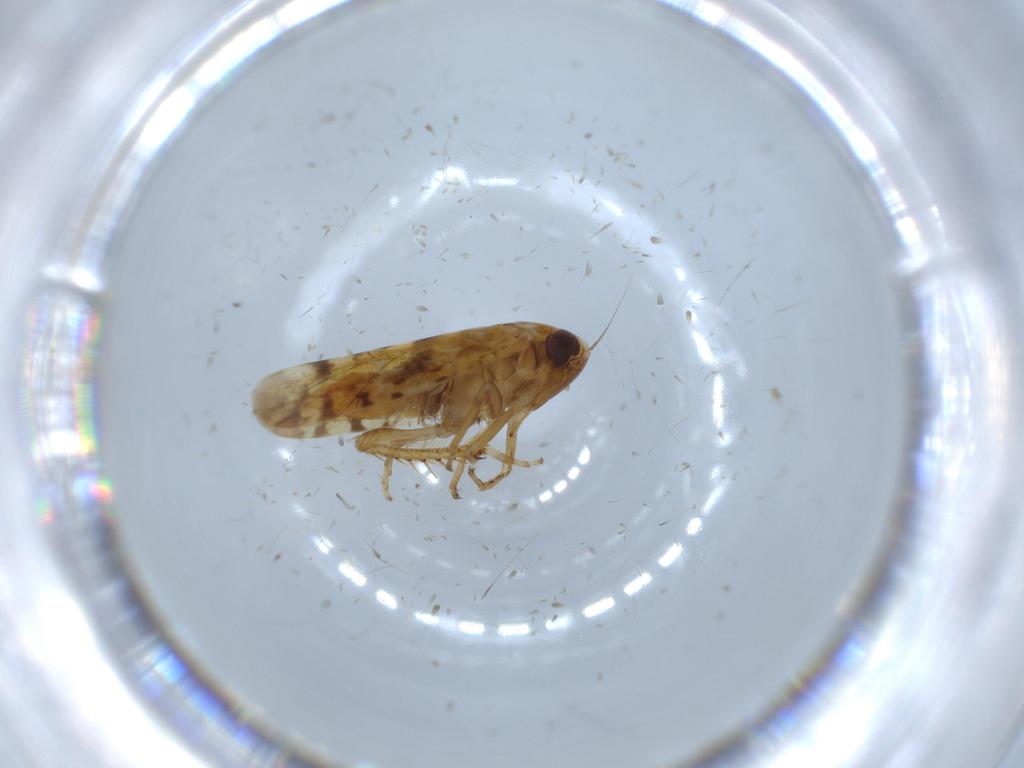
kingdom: Animalia
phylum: Arthropoda
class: Insecta
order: Hemiptera
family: Cicadellidae
